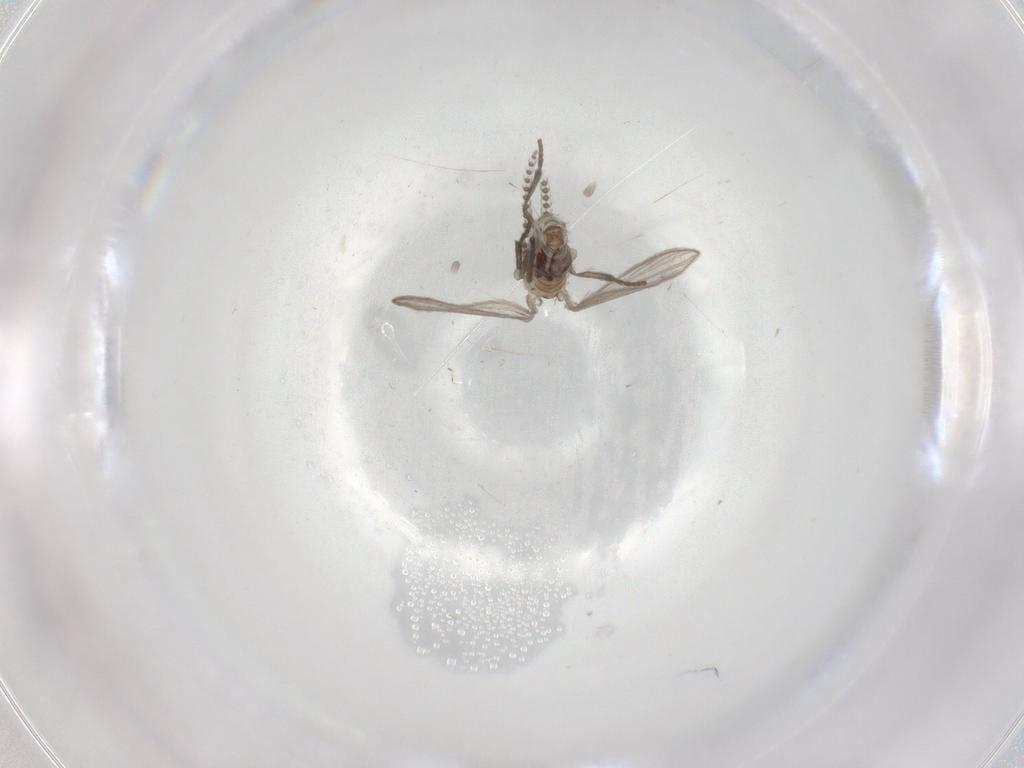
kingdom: Animalia
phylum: Arthropoda
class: Insecta
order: Diptera
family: Psychodidae
